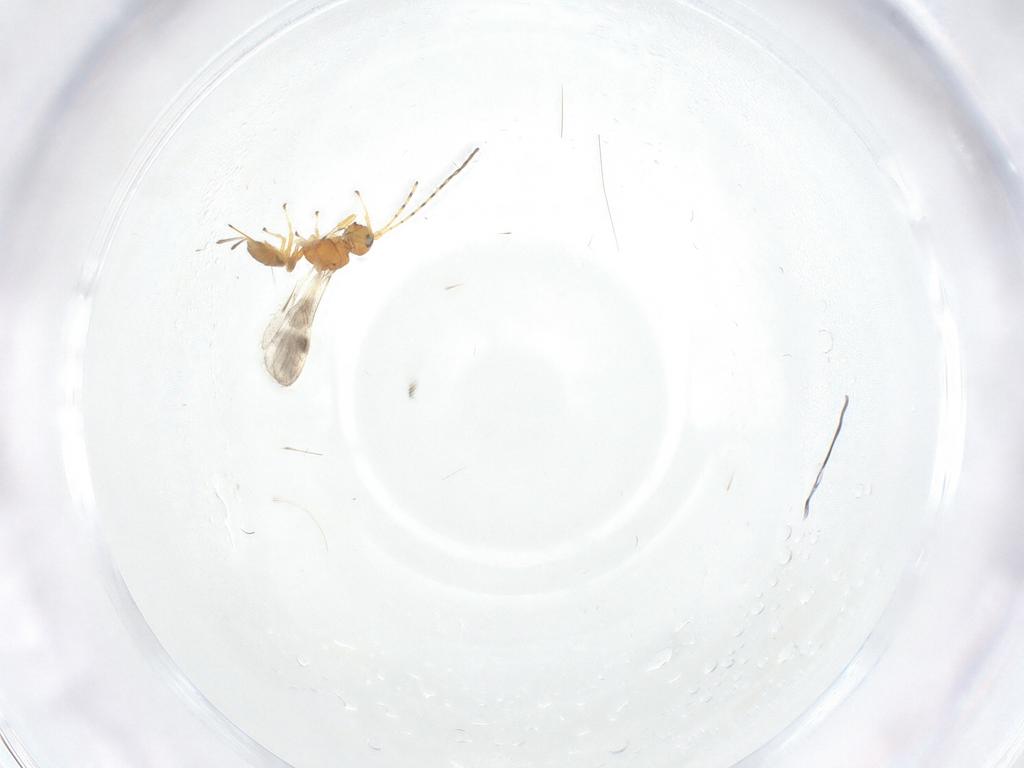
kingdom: Animalia
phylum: Arthropoda
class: Insecta
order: Hymenoptera
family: Braconidae
